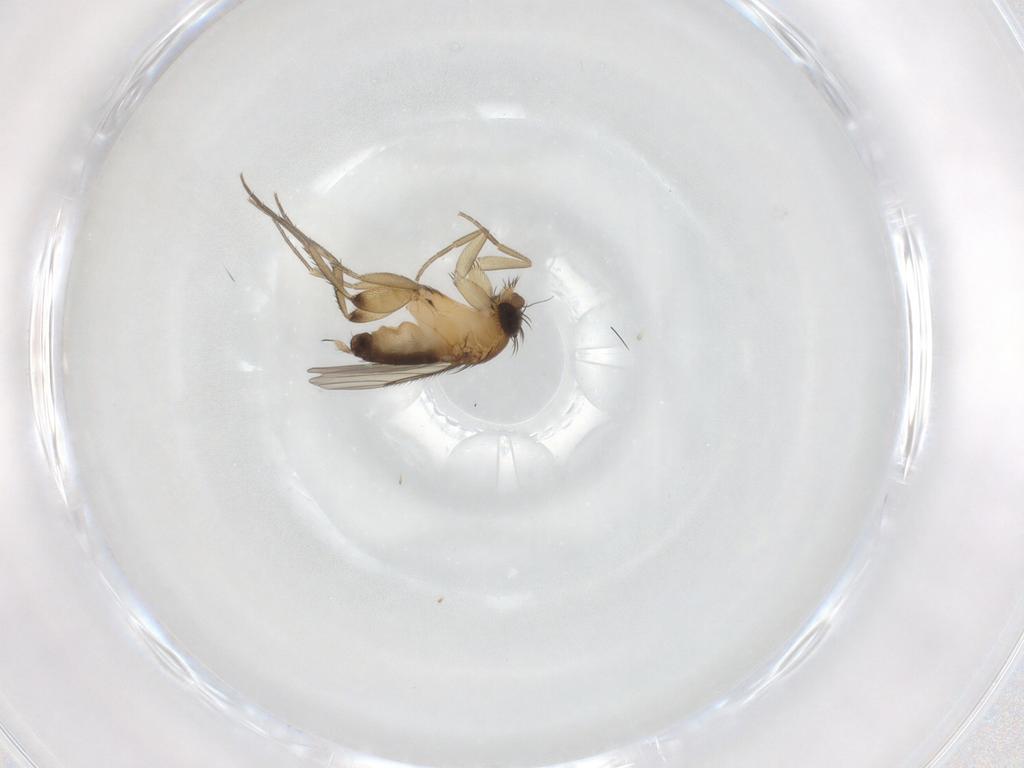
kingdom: Animalia
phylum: Arthropoda
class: Insecta
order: Diptera
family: Phoridae
